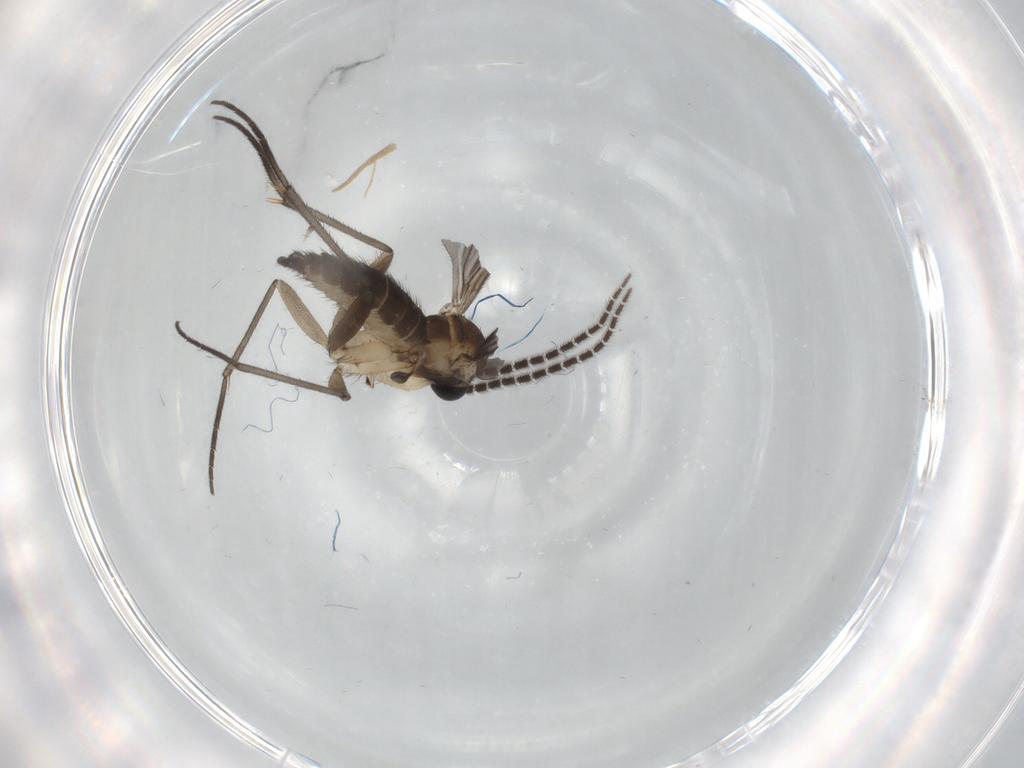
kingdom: Animalia
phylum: Arthropoda
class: Insecta
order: Diptera
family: Sciaridae
